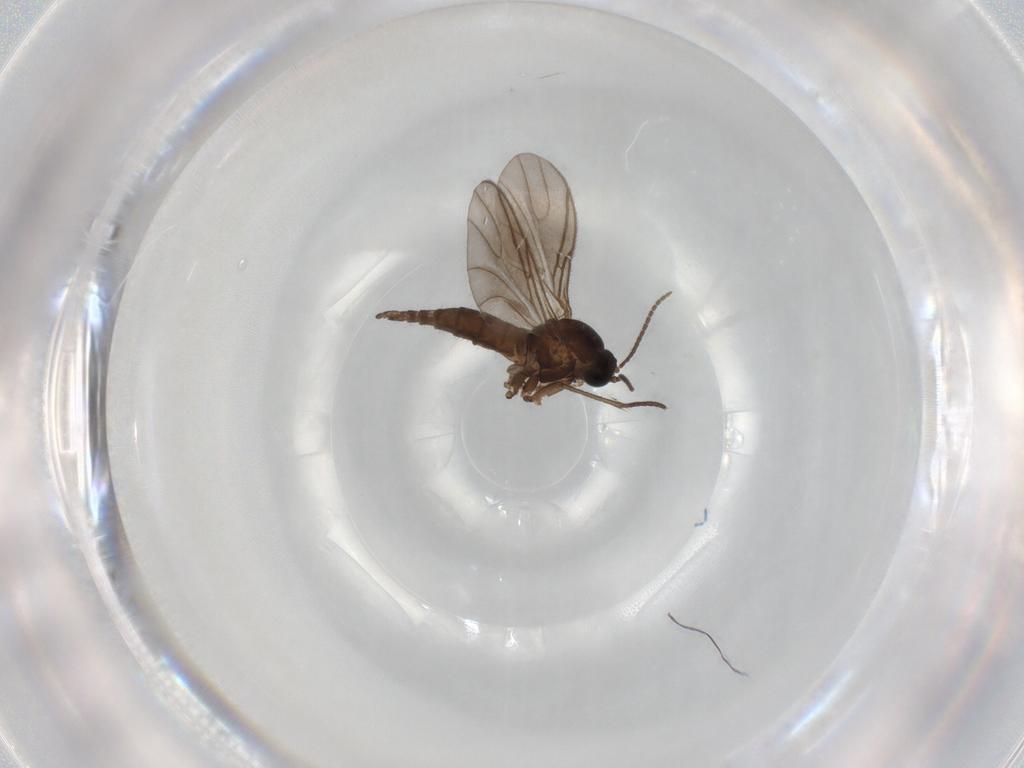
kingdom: Animalia
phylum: Arthropoda
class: Insecta
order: Diptera
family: Sciaridae
